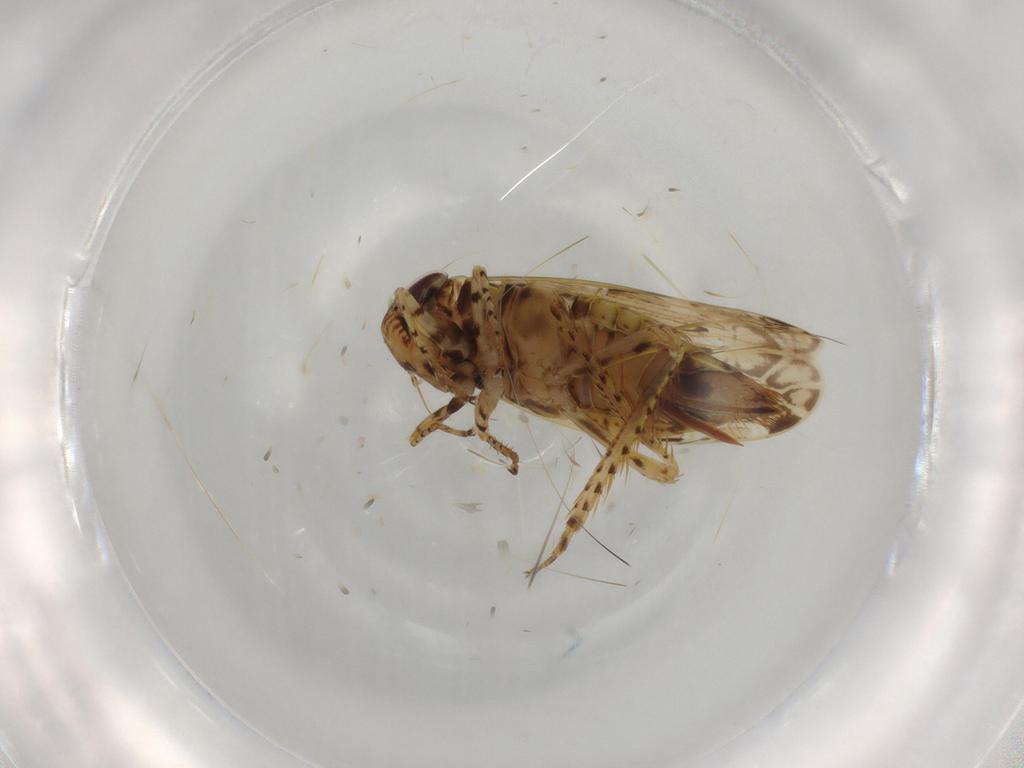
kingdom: Animalia
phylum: Arthropoda
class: Insecta
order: Hemiptera
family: Cicadellidae
